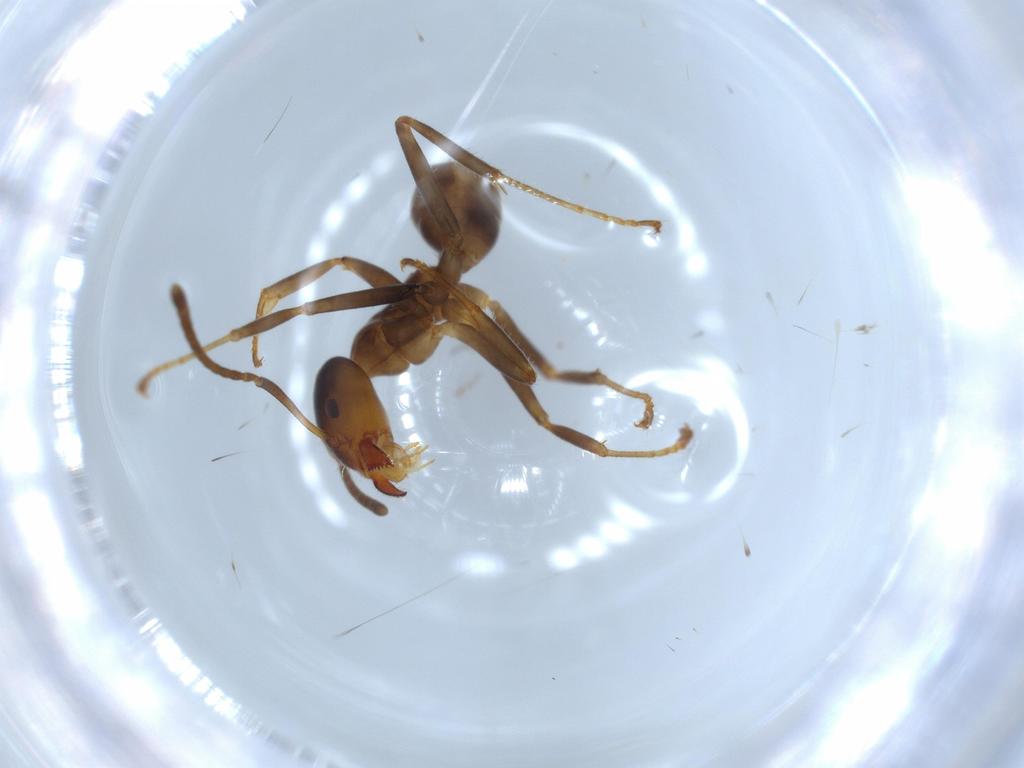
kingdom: Animalia
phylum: Arthropoda
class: Insecta
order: Hymenoptera
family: Formicidae
